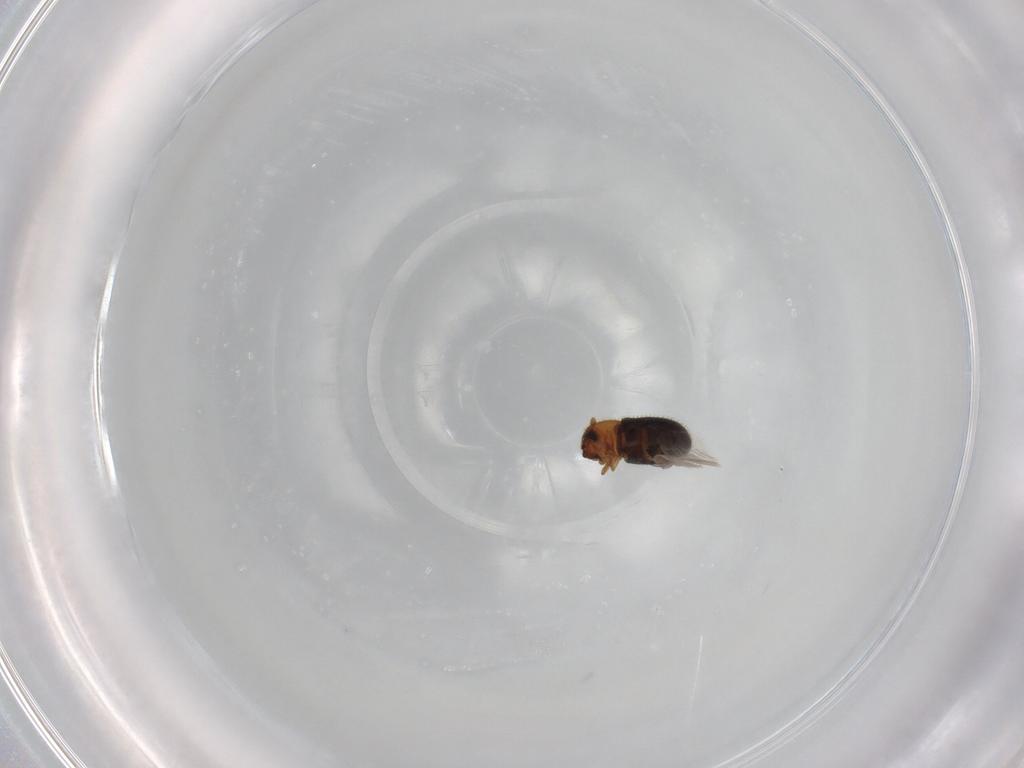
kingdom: Animalia
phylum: Arthropoda
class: Insecta
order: Coleoptera
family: Curculionidae
